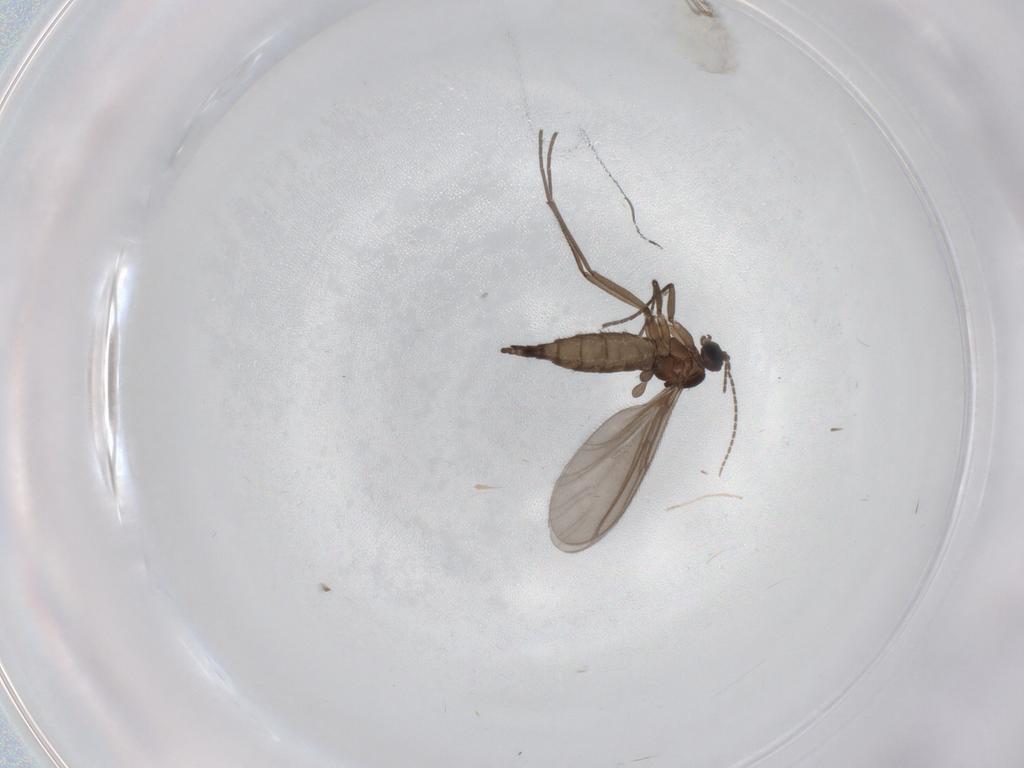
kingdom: Animalia
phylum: Arthropoda
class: Insecta
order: Diptera
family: Sciaridae
